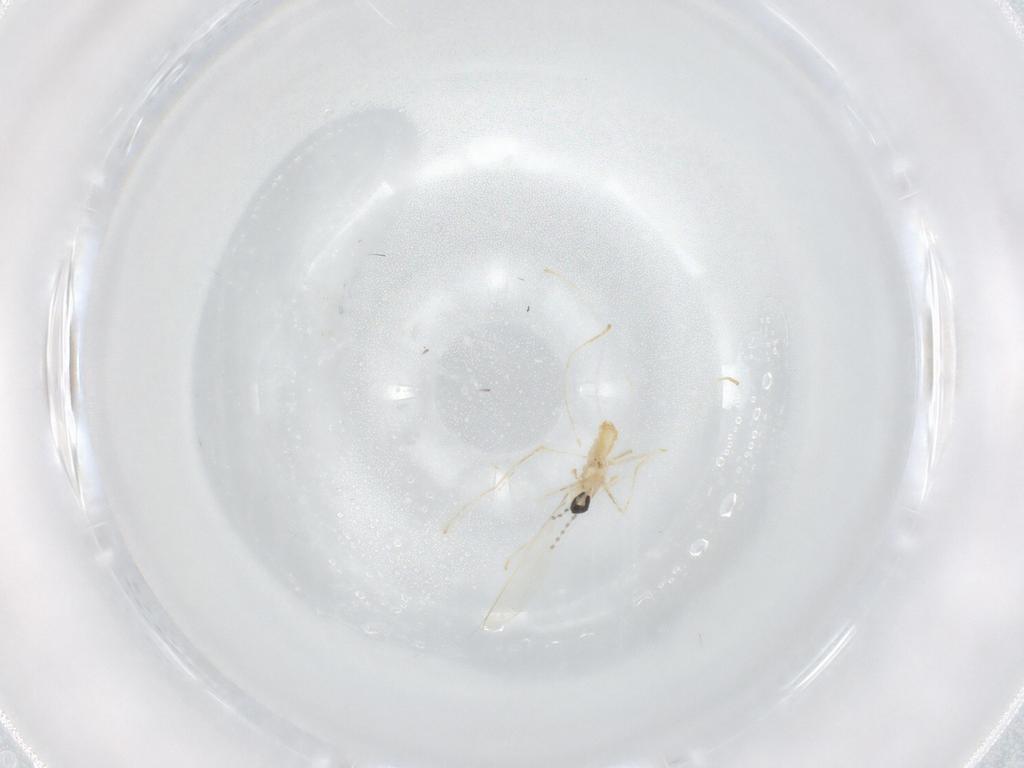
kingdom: Animalia
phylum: Arthropoda
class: Insecta
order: Diptera
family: Cecidomyiidae
